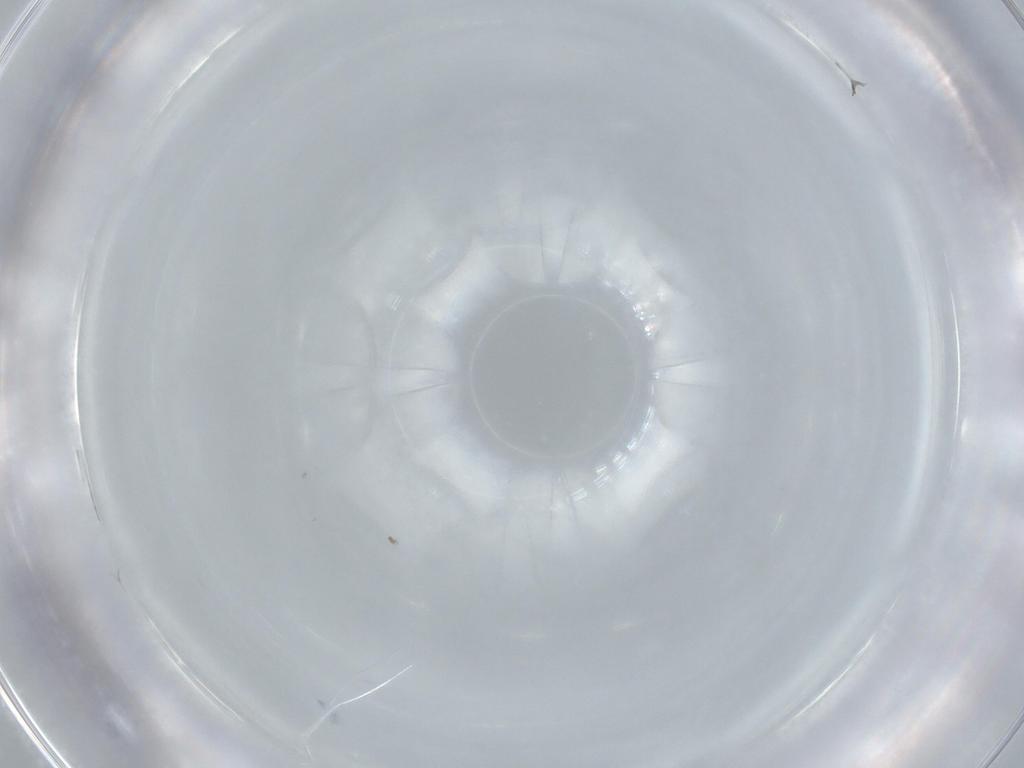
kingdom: Animalia
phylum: Arthropoda
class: Insecta
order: Diptera
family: Cecidomyiidae
